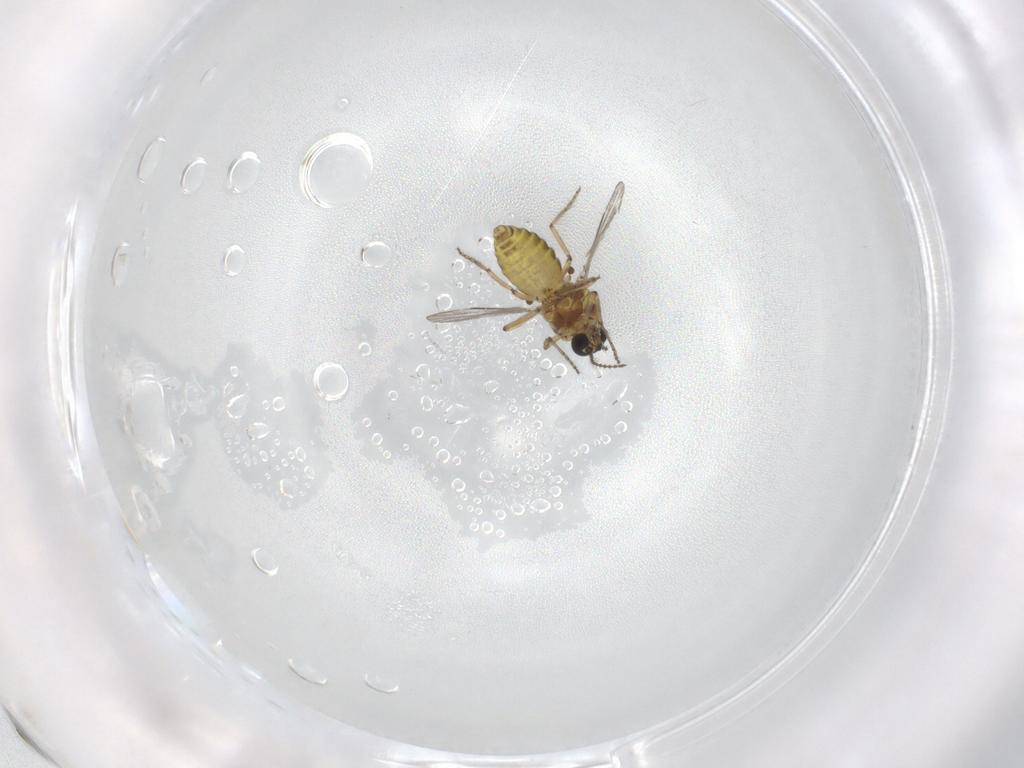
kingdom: Animalia
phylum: Arthropoda
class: Insecta
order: Diptera
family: Ceratopogonidae
